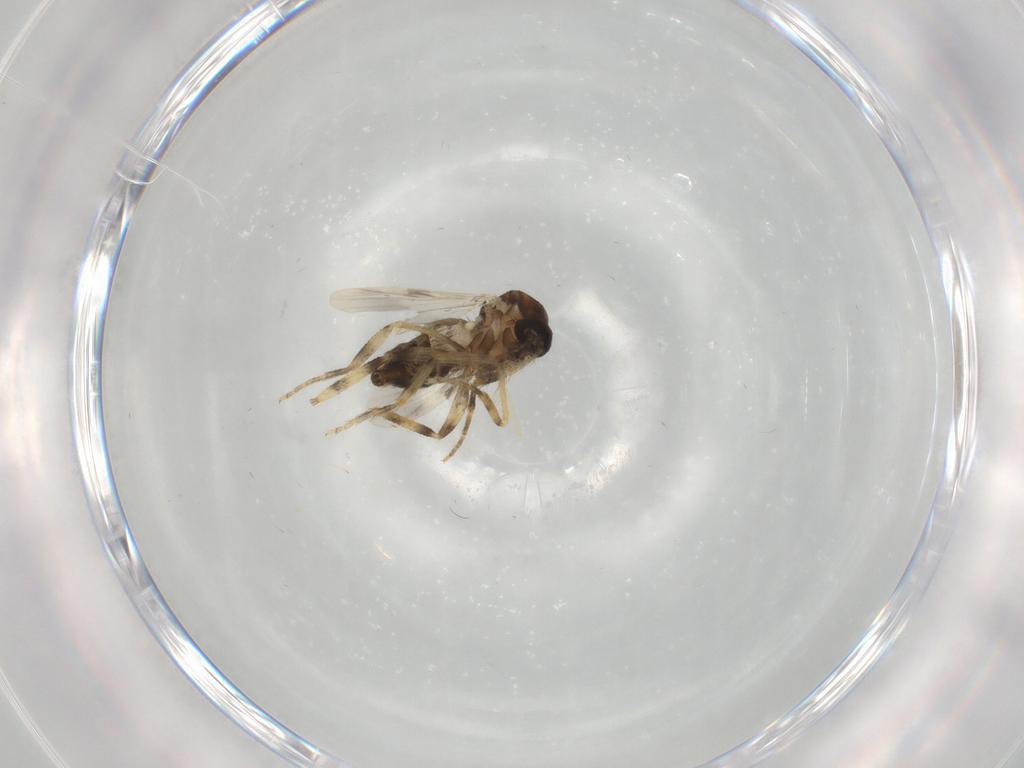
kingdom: Animalia
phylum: Arthropoda
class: Insecta
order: Diptera
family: Ceratopogonidae
